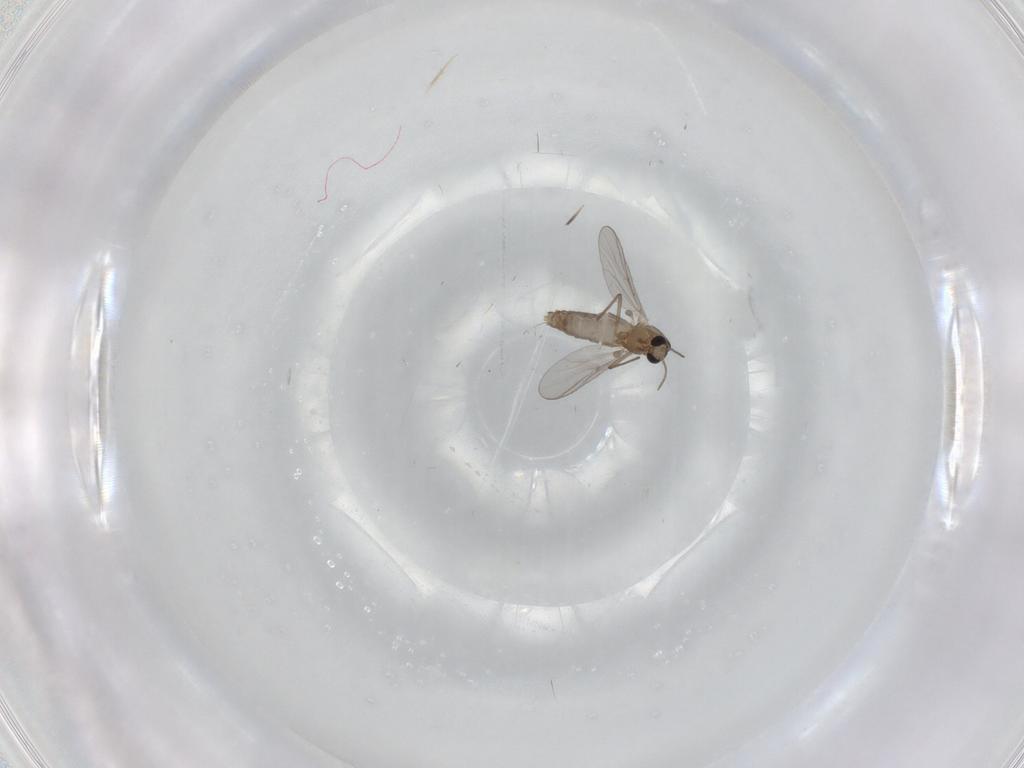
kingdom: Animalia
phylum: Arthropoda
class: Insecta
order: Diptera
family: Chironomidae
